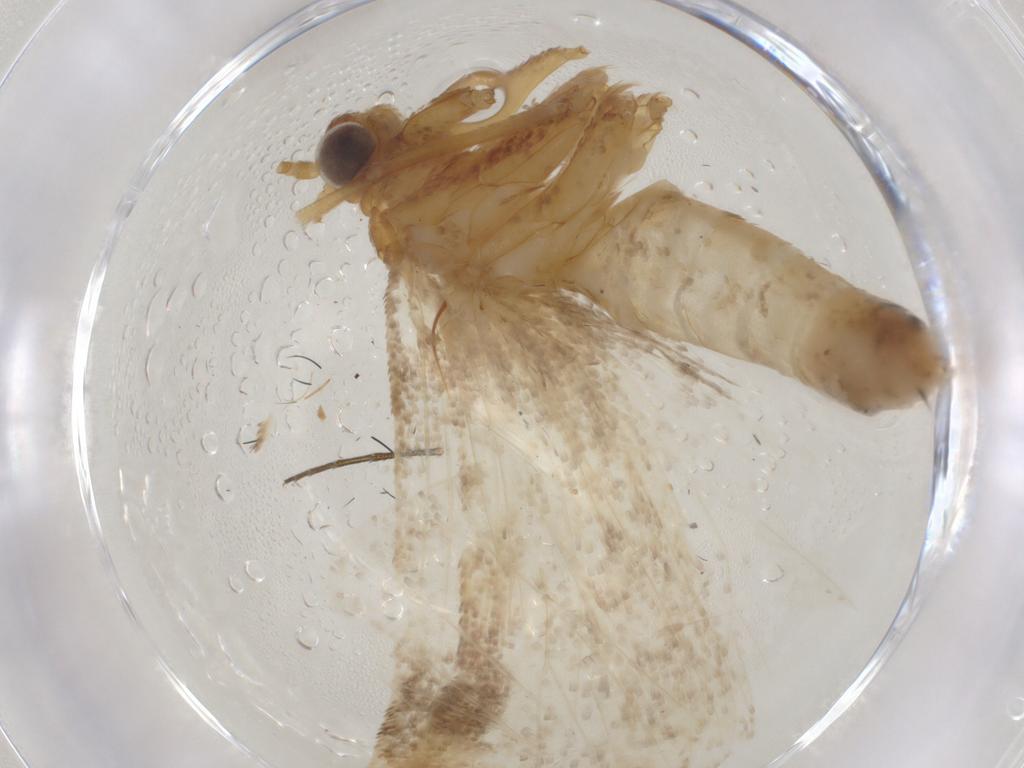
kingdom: Animalia
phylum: Arthropoda
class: Insecta
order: Lepidoptera
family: Pyralidae
